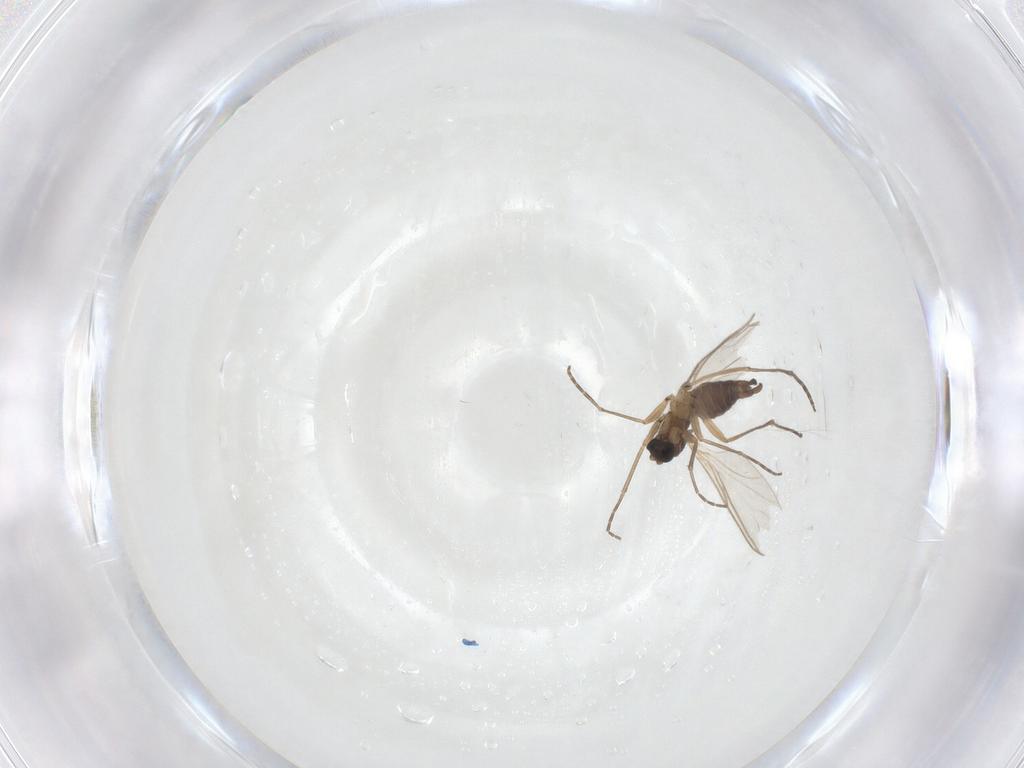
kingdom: Animalia
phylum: Arthropoda
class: Insecta
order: Diptera
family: Sciaridae
